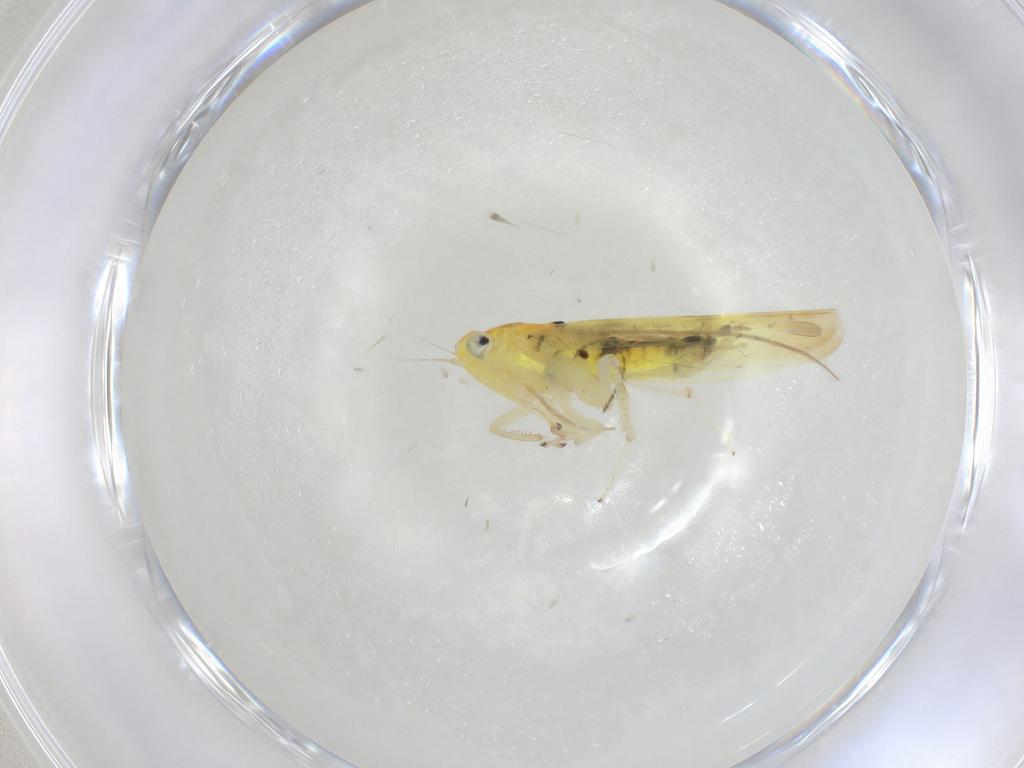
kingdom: Animalia
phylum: Arthropoda
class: Insecta
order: Hemiptera
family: Cicadellidae
